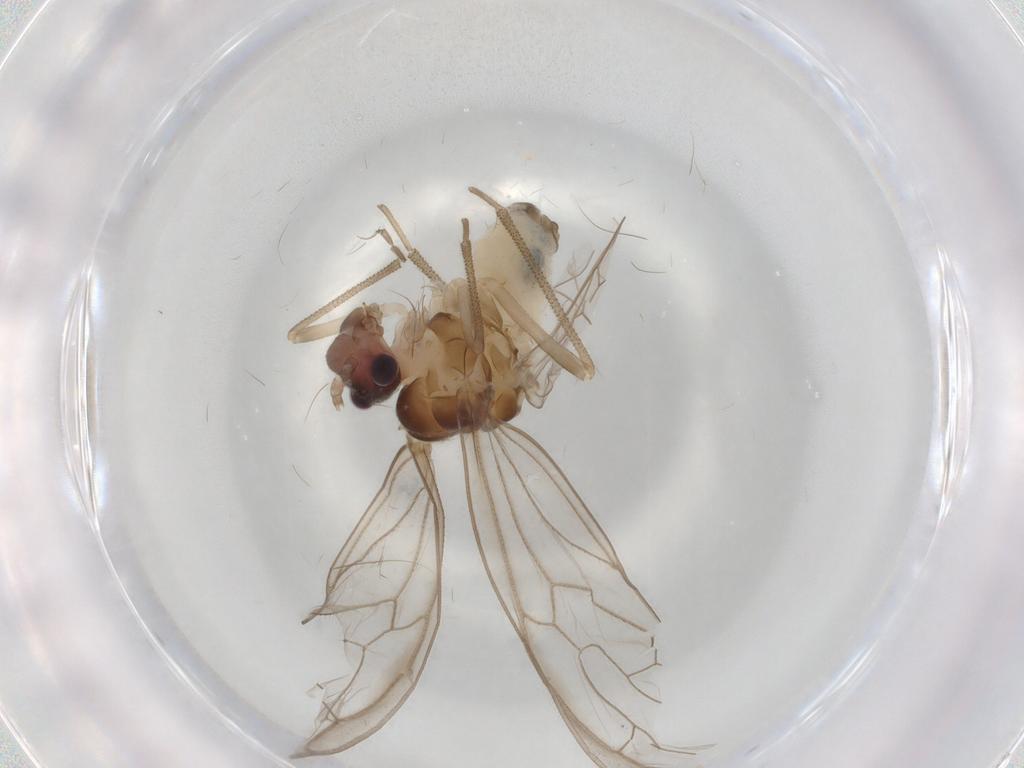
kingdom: Animalia
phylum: Arthropoda
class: Insecta
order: Psocodea
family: Stenopsocidae
